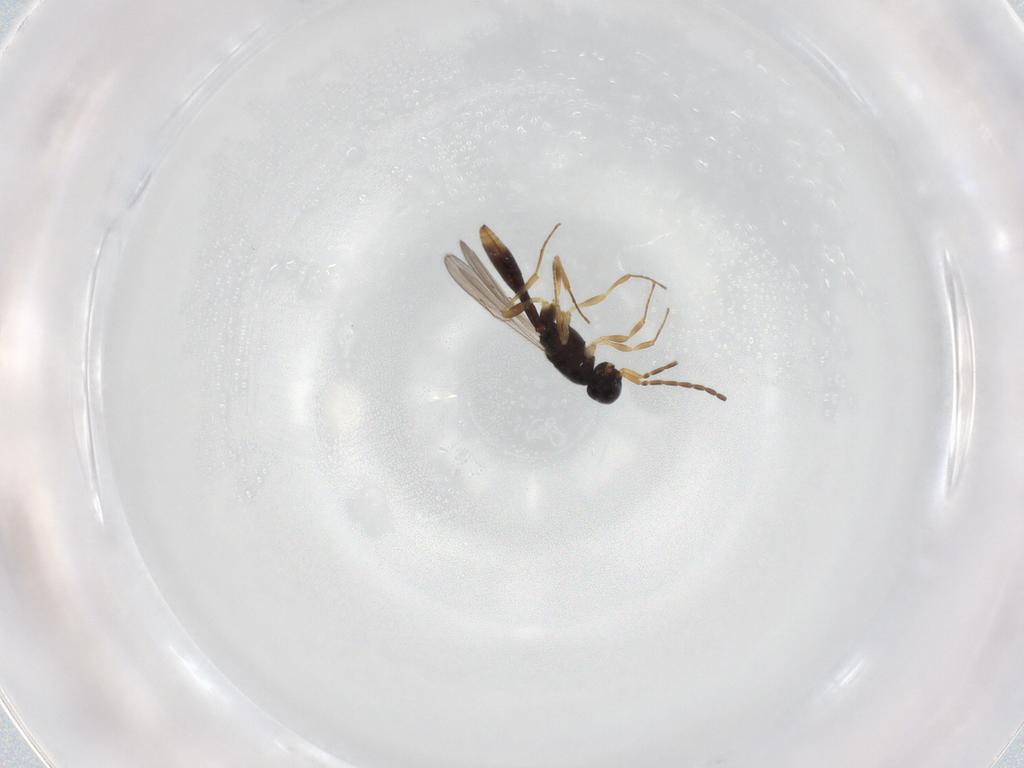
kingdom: Animalia
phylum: Arthropoda
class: Insecta
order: Hymenoptera
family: Scelionidae
